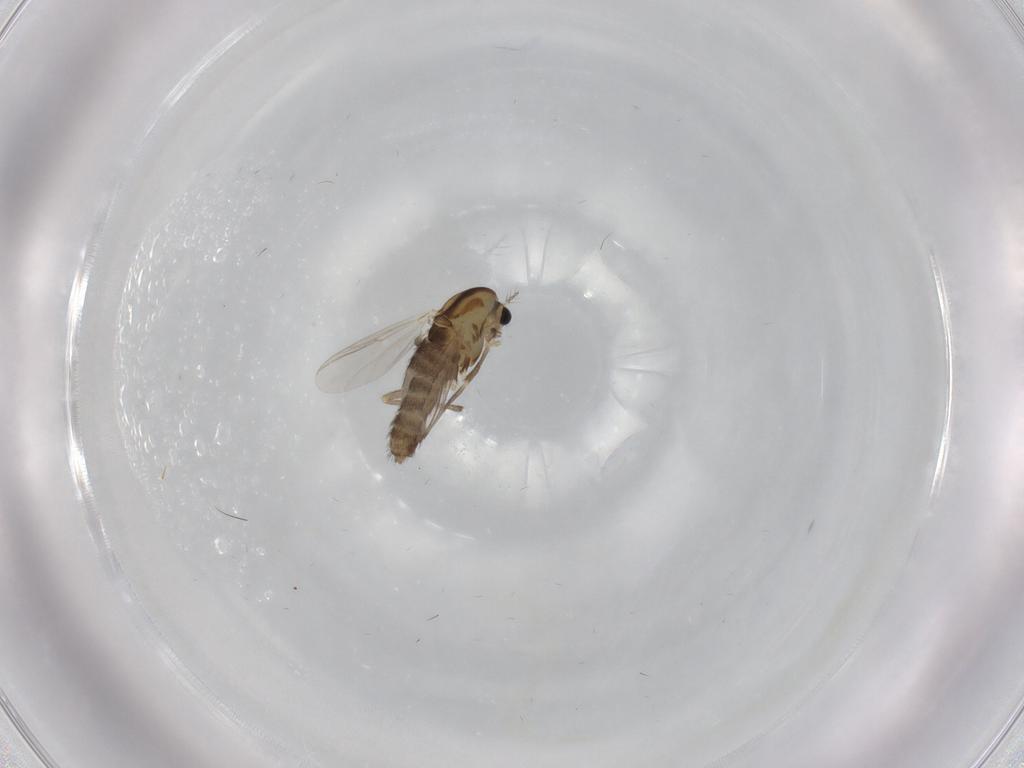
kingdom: Animalia
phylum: Arthropoda
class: Insecta
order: Diptera
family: Chironomidae
